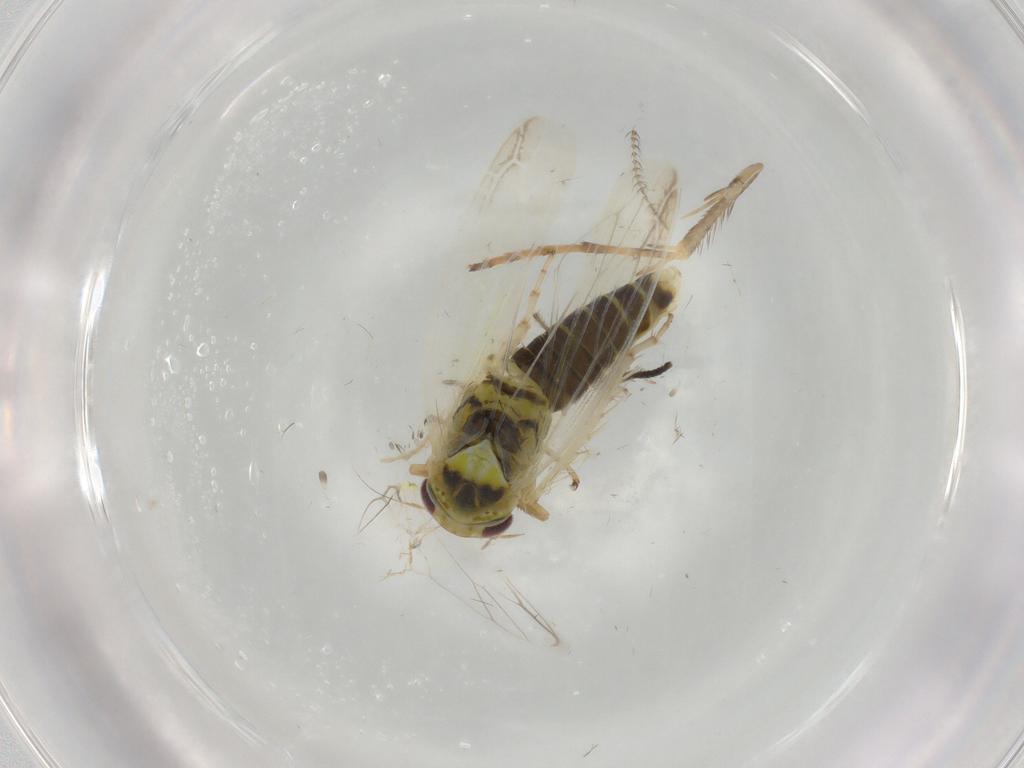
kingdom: Animalia
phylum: Arthropoda
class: Insecta
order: Hemiptera
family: Cicadellidae
